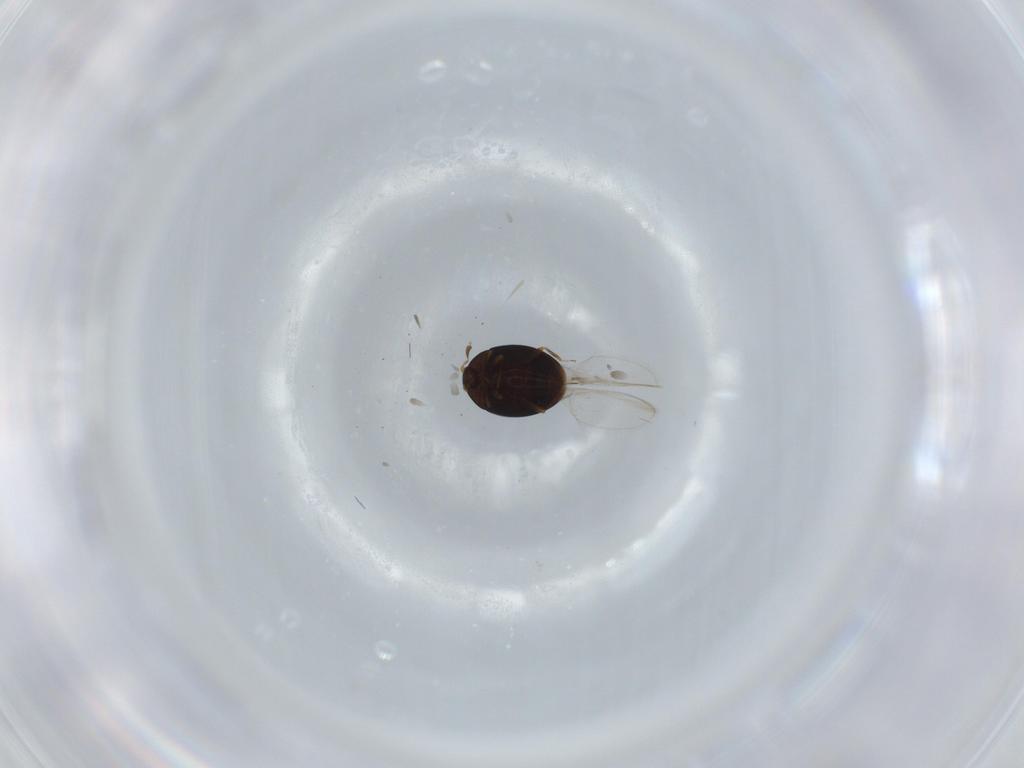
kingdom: Animalia
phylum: Arthropoda
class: Insecta
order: Coleoptera
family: Corylophidae
